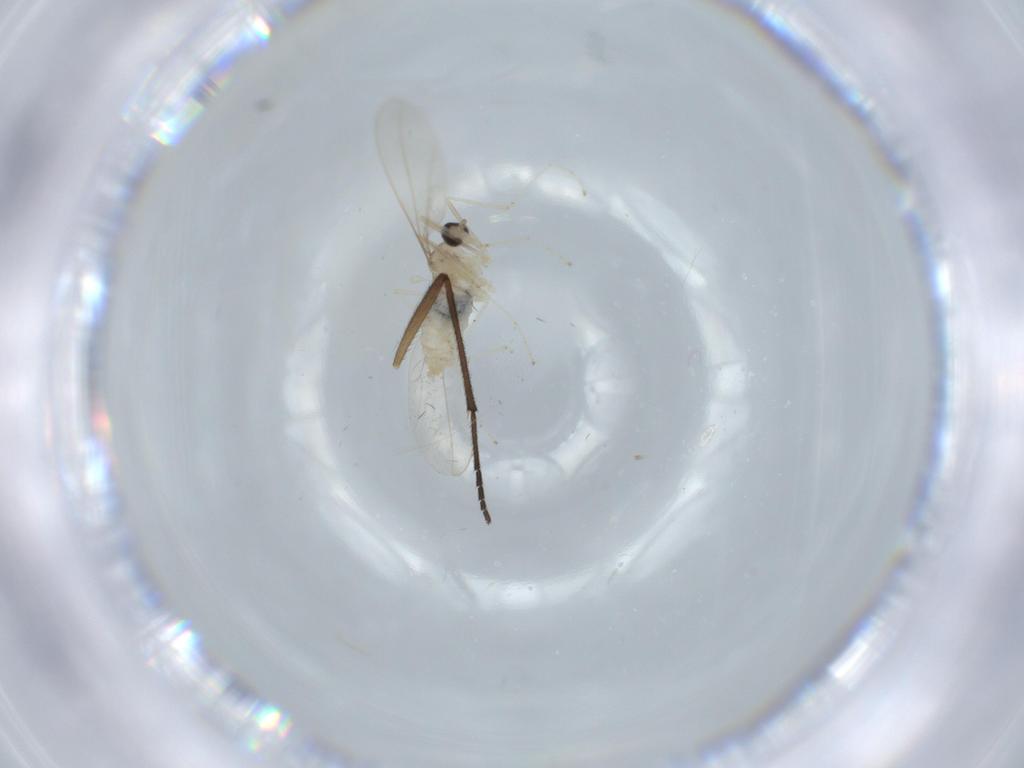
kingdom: Animalia
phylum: Arthropoda
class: Insecta
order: Diptera
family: Cecidomyiidae
